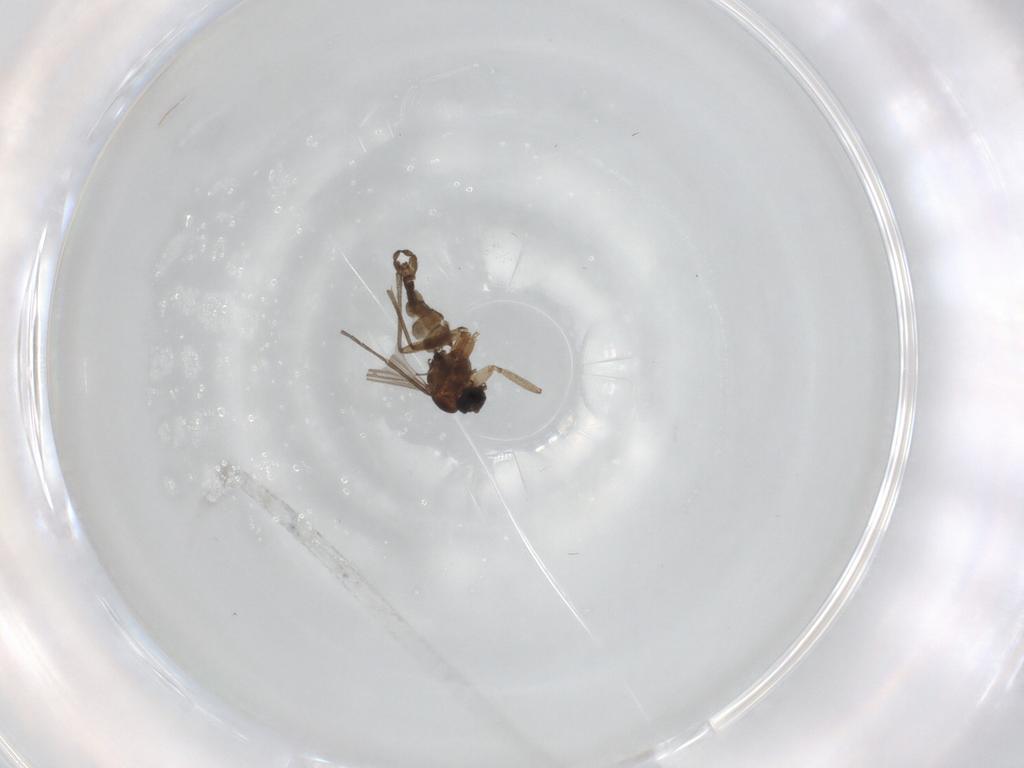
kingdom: Animalia
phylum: Arthropoda
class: Insecta
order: Diptera
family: Sciaridae
